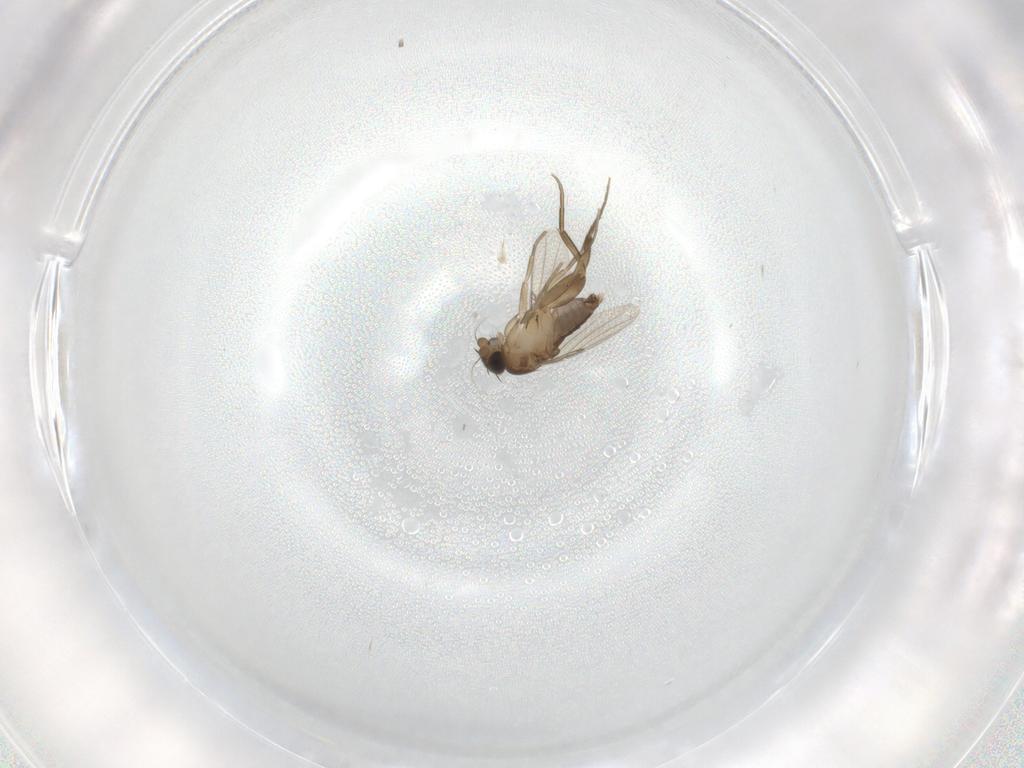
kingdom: Animalia
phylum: Arthropoda
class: Insecta
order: Diptera
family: Phoridae
